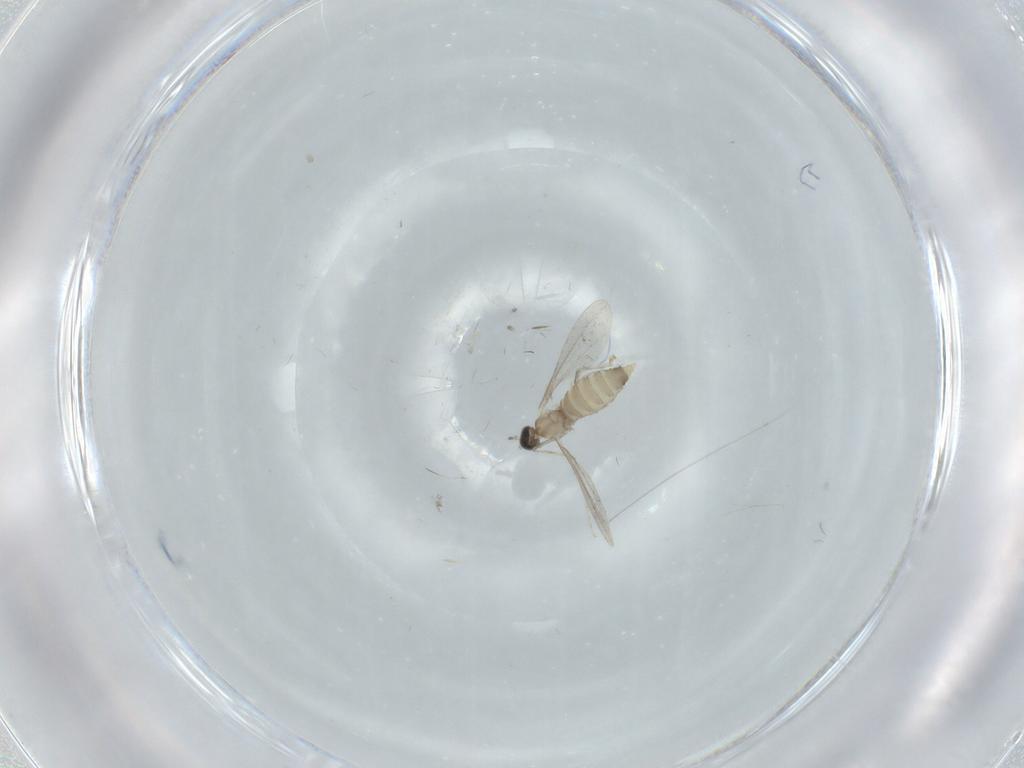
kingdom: Animalia
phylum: Arthropoda
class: Insecta
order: Diptera
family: Cecidomyiidae
